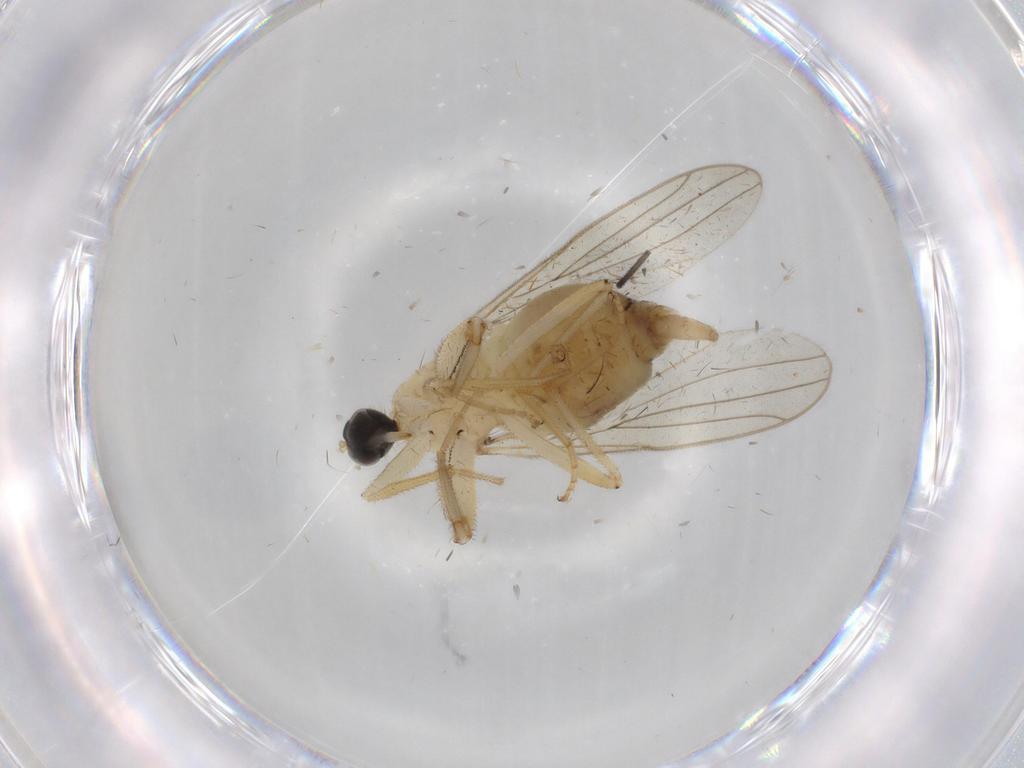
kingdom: Animalia
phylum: Arthropoda
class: Insecta
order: Diptera
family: Hybotidae
